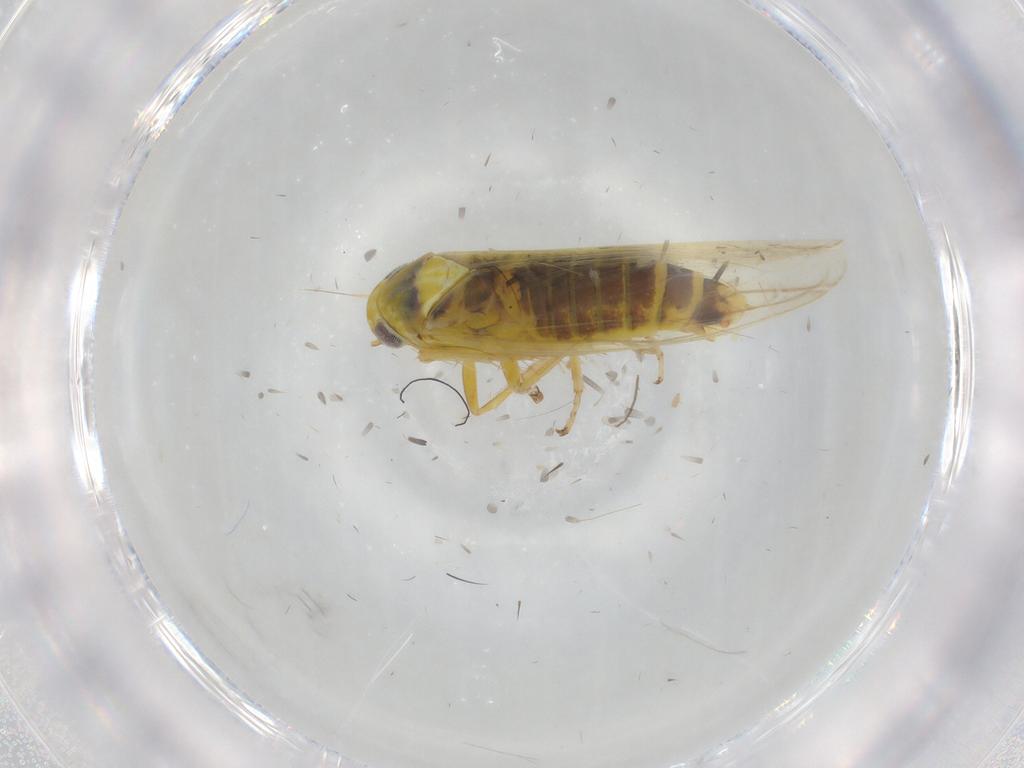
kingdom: Animalia
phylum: Arthropoda
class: Insecta
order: Hemiptera
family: Cicadellidae
